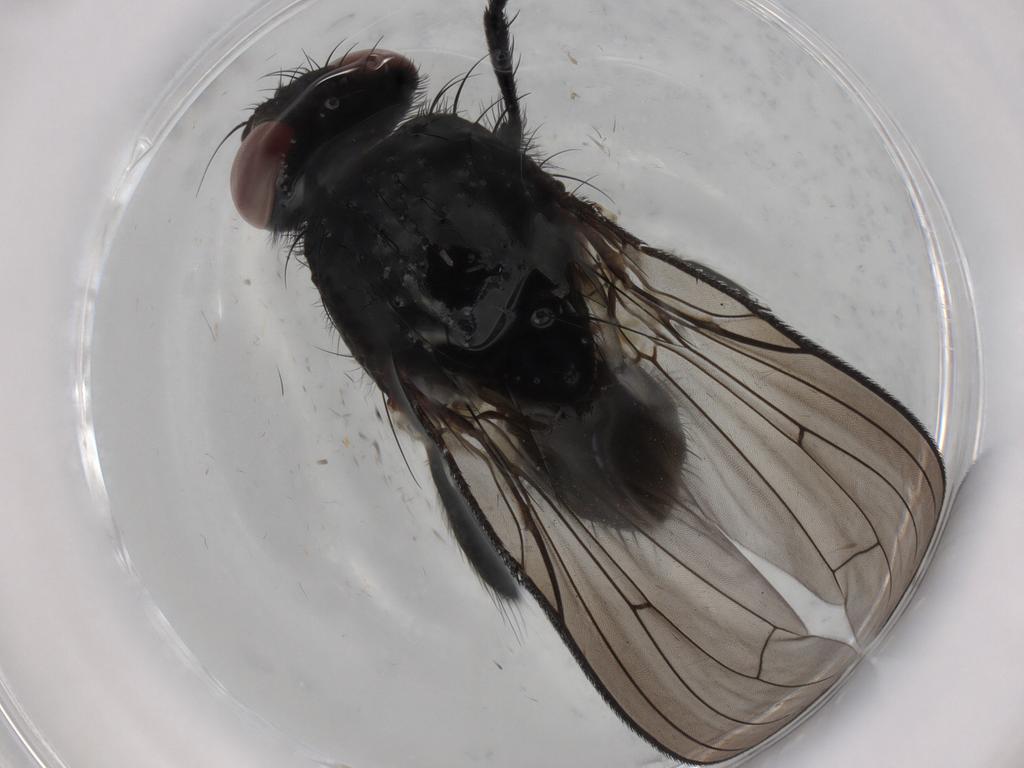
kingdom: Animalia
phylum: Arthropoda
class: Insecta
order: Diptera
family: Anthomyiidae
